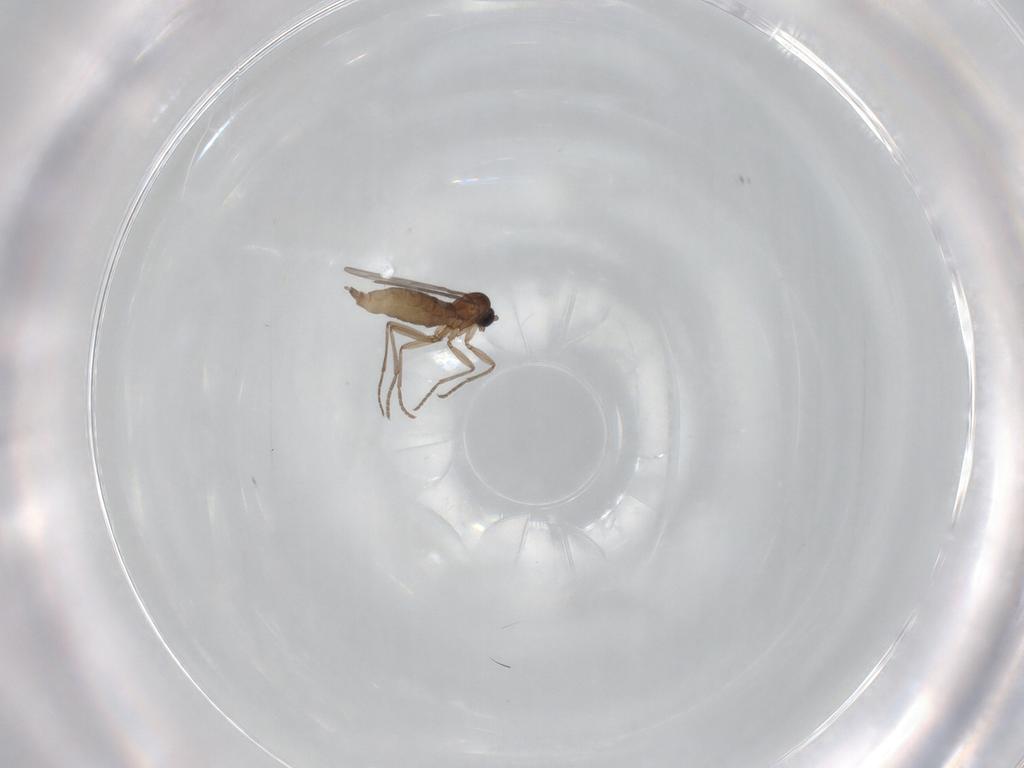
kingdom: Animalia
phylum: Arthropoda
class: Insecta
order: Diptera
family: Sciaridae
